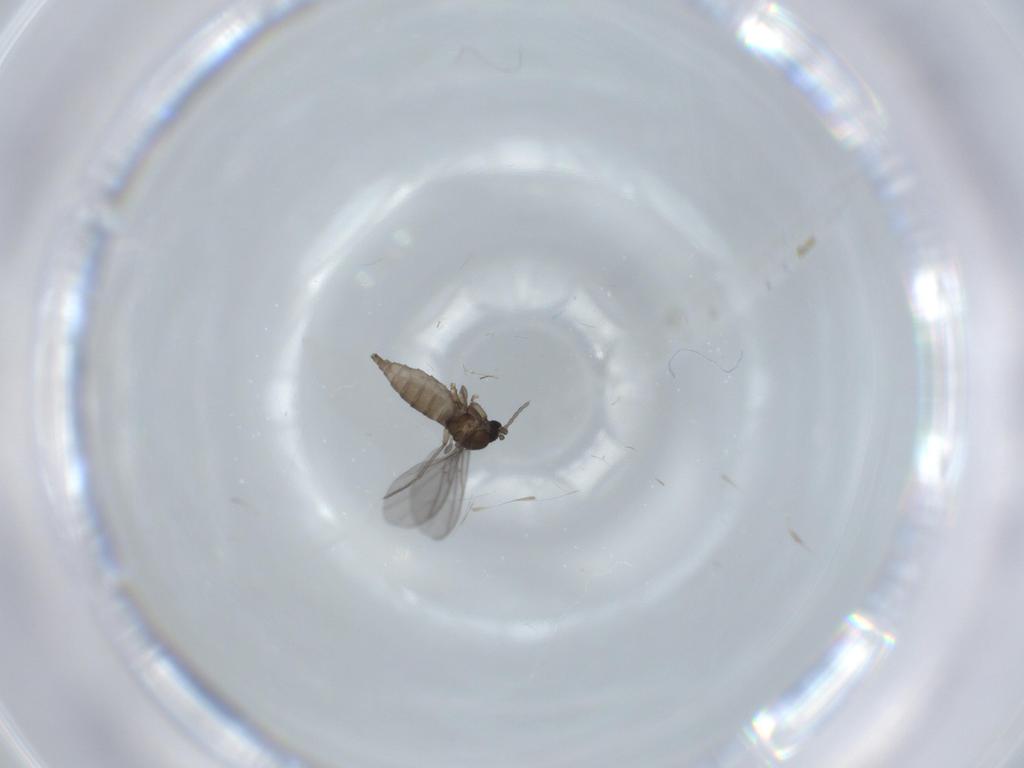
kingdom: Animalia
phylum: Arthropoda
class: Insecta
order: Diptera
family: Sciaridae
